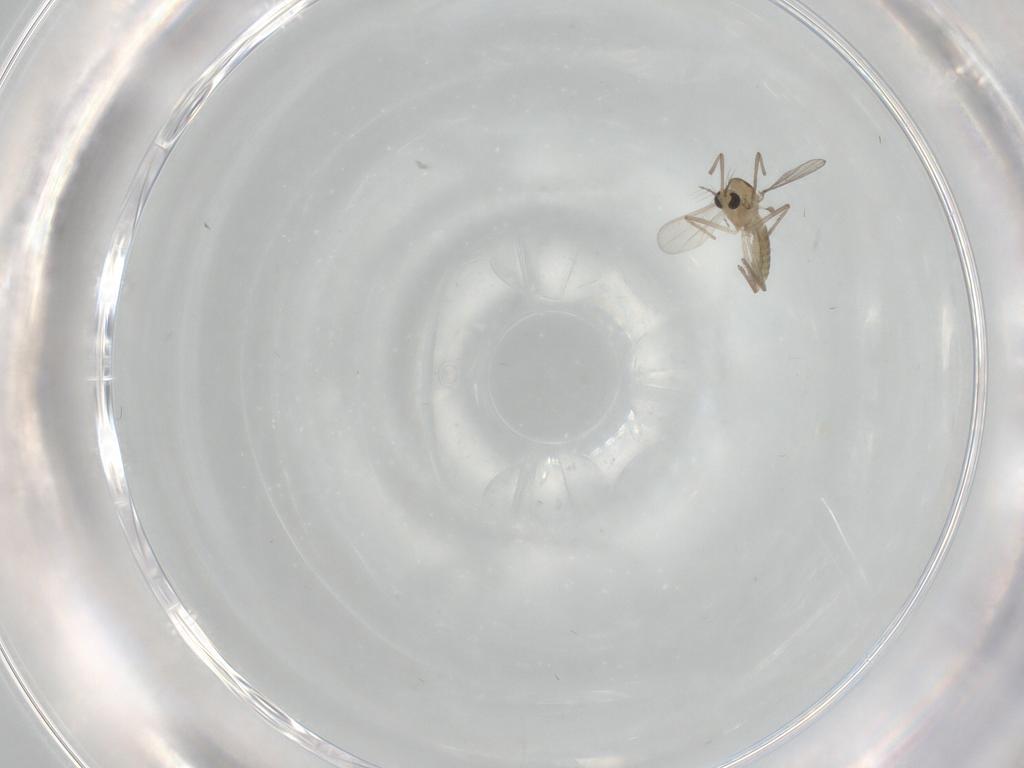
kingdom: Animalia
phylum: Arthropoda
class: Insecta
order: Diptera
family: Chironomidae
